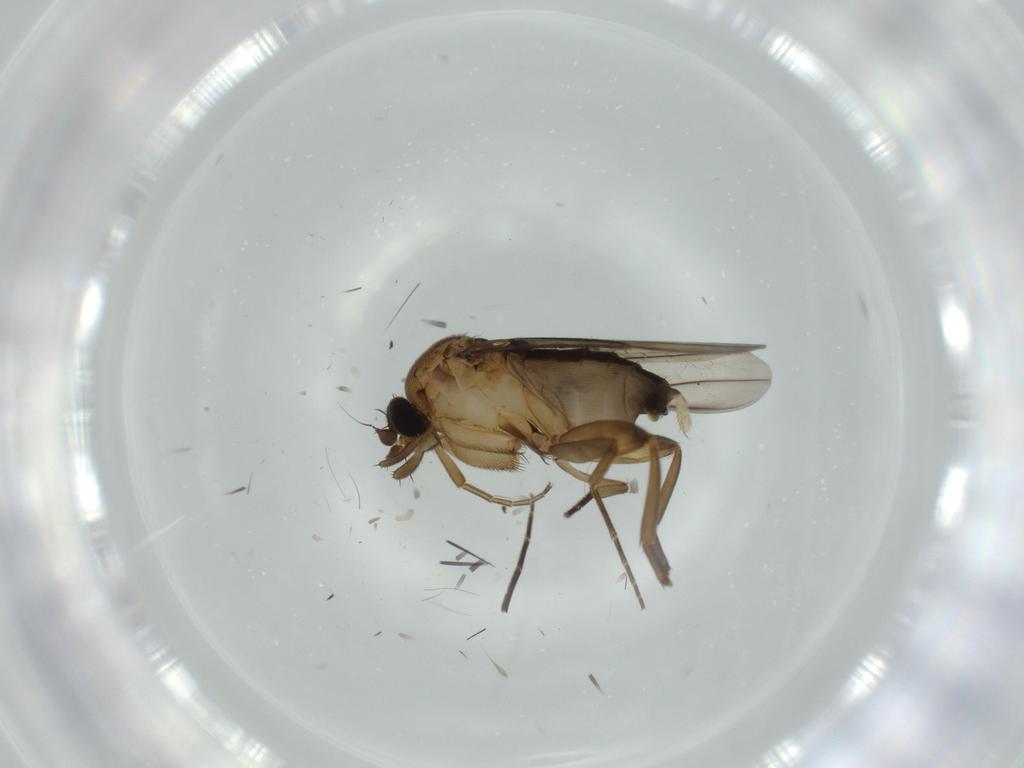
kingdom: Animalia
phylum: Arthropoda
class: Insecta
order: Diptera
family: Phoridae
